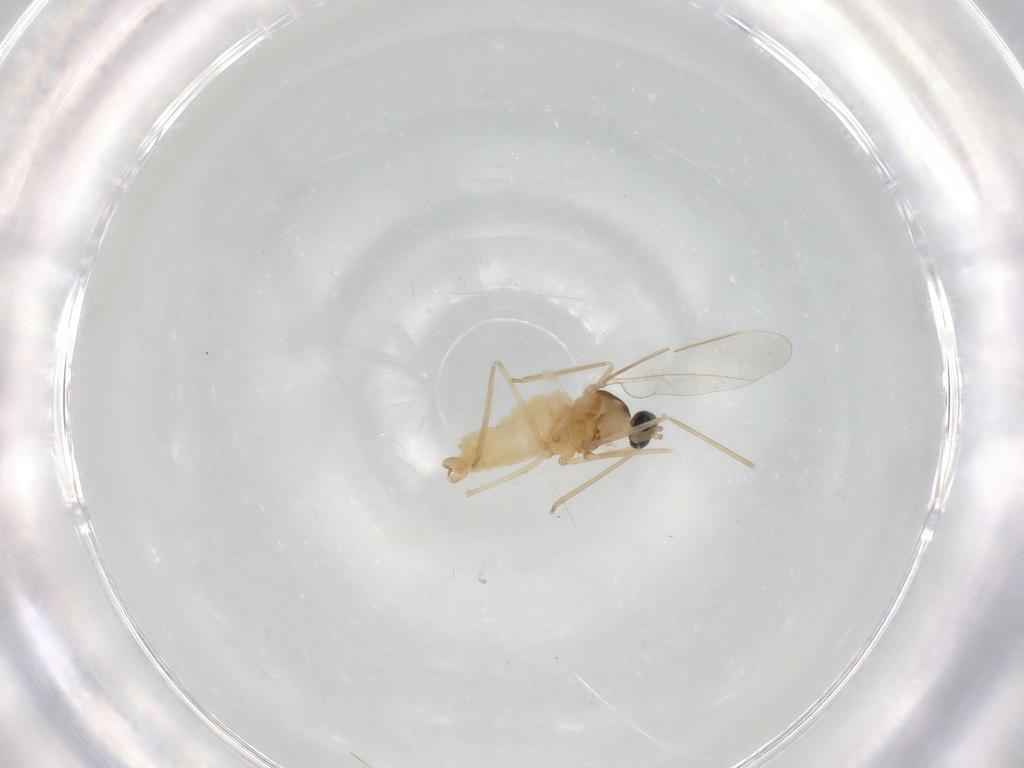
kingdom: Animalia
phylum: Arthropoda
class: Insecta
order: Diptera
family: Cecidomyiidae
